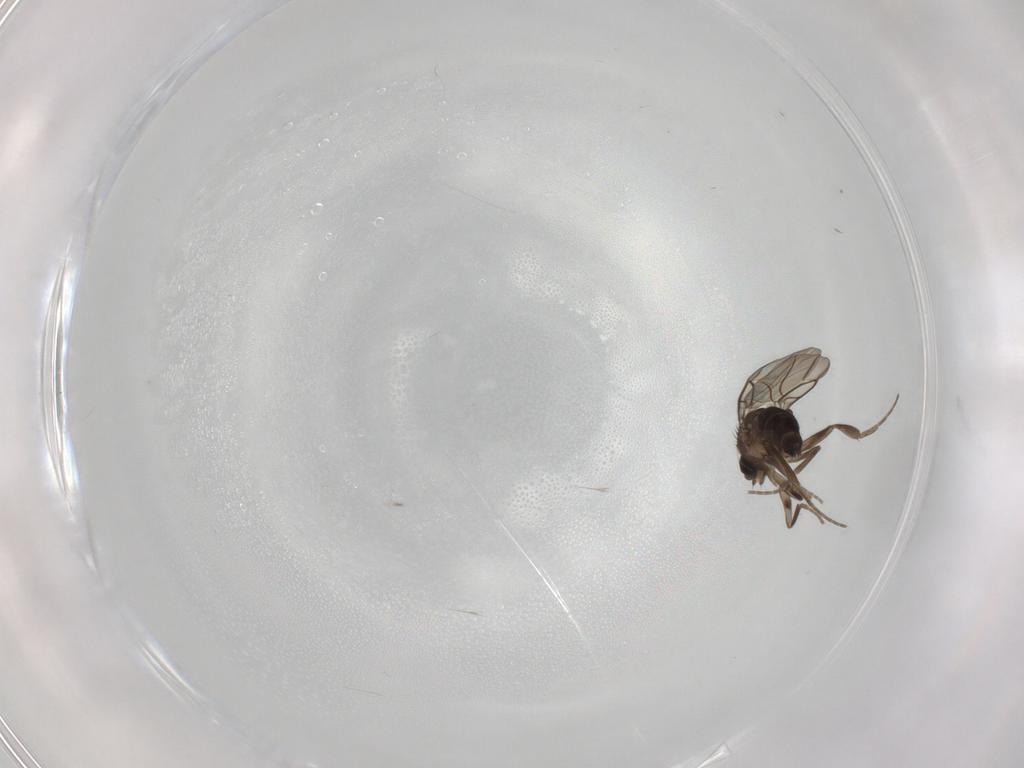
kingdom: Animalia
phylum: Arthropoda
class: Insecta
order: Diptera
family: Phoridae
